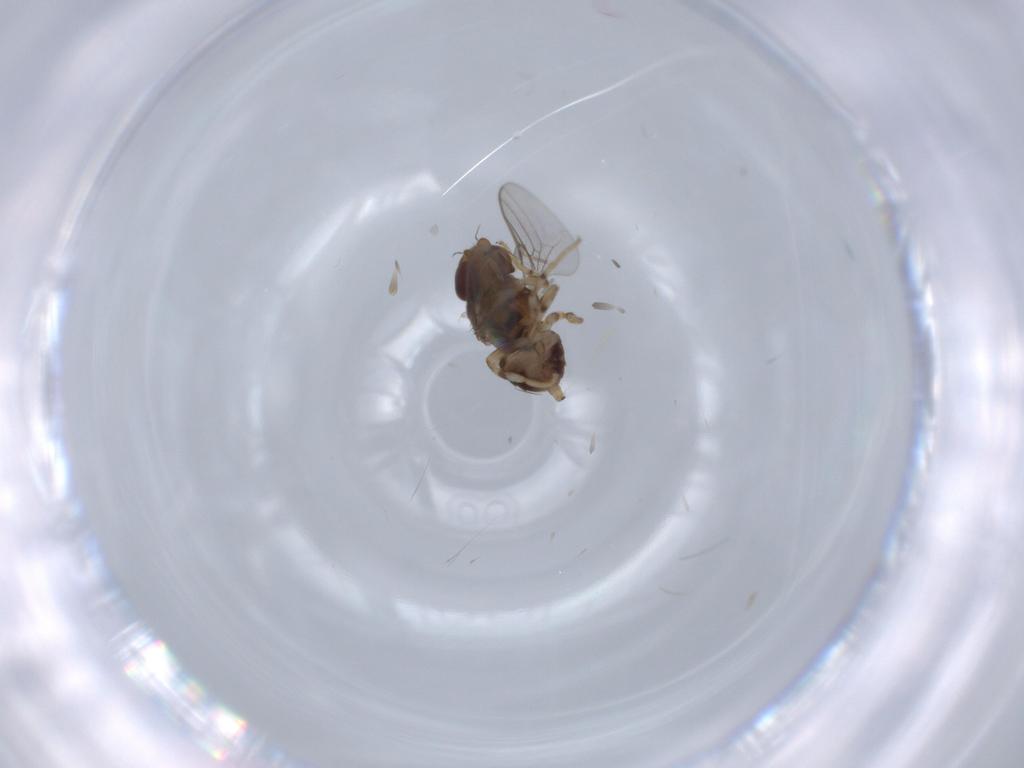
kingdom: Animalia
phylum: Arthropoda
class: Insecta
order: Diptera
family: Chloropidae
